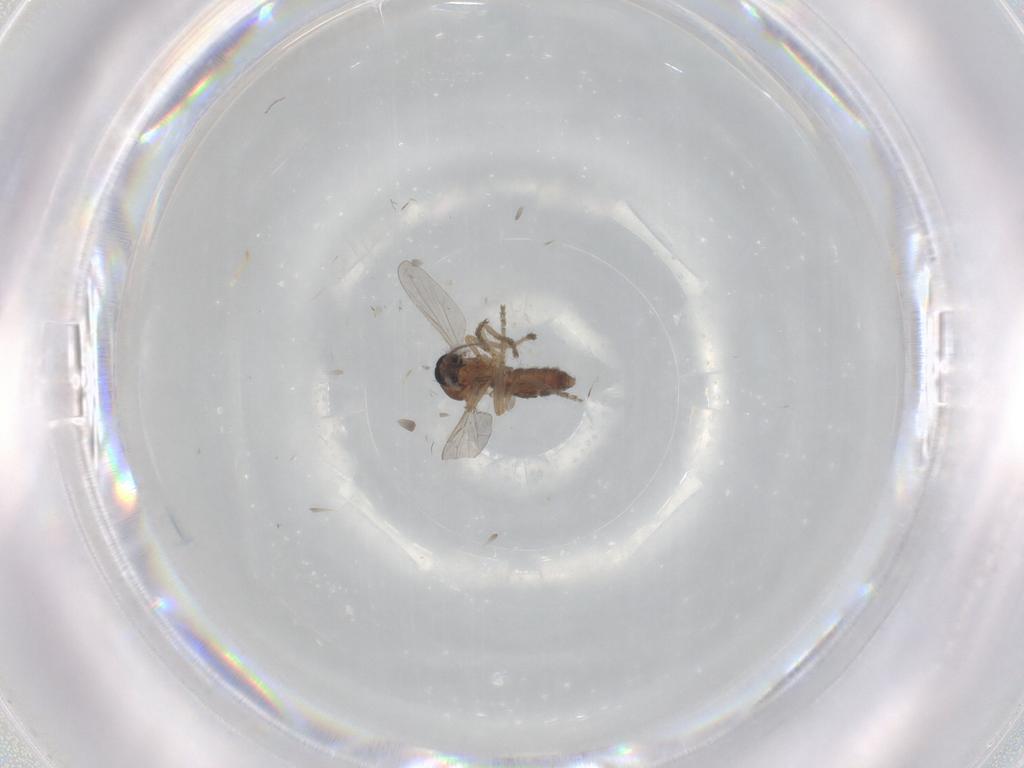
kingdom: Animalia
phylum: Arthropoda
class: Insecta
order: Diptera
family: Ceratopogonidae
